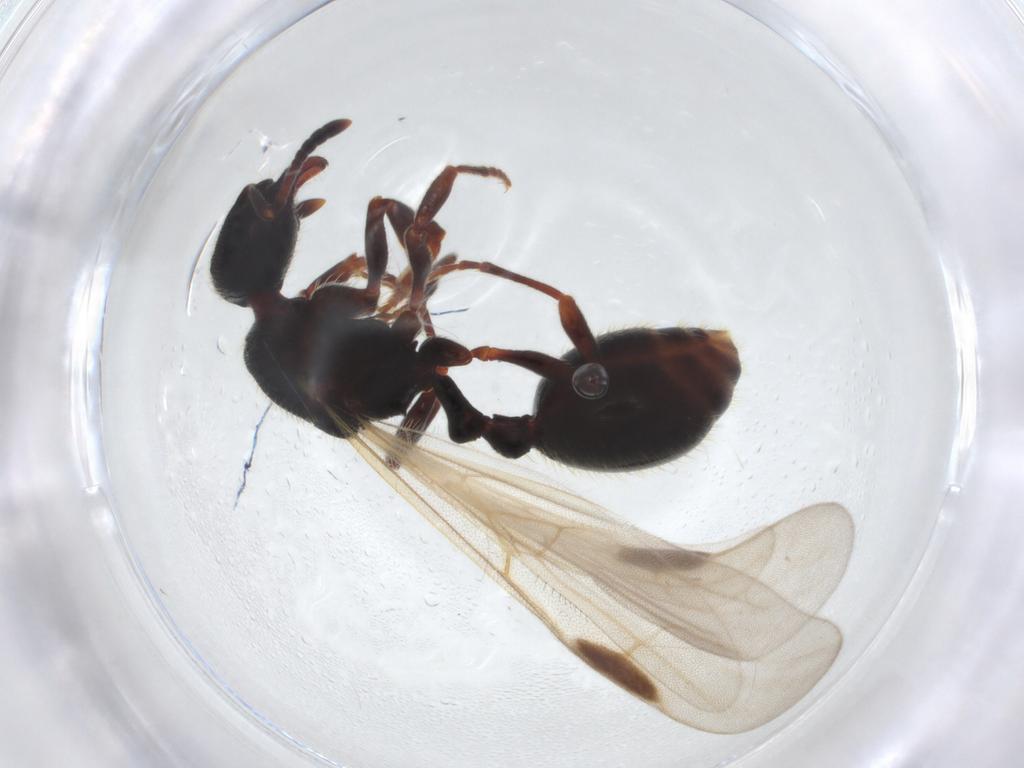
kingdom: Animalia
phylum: Arthropoda
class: Insecta
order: Hymenoptera
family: Formicidae
